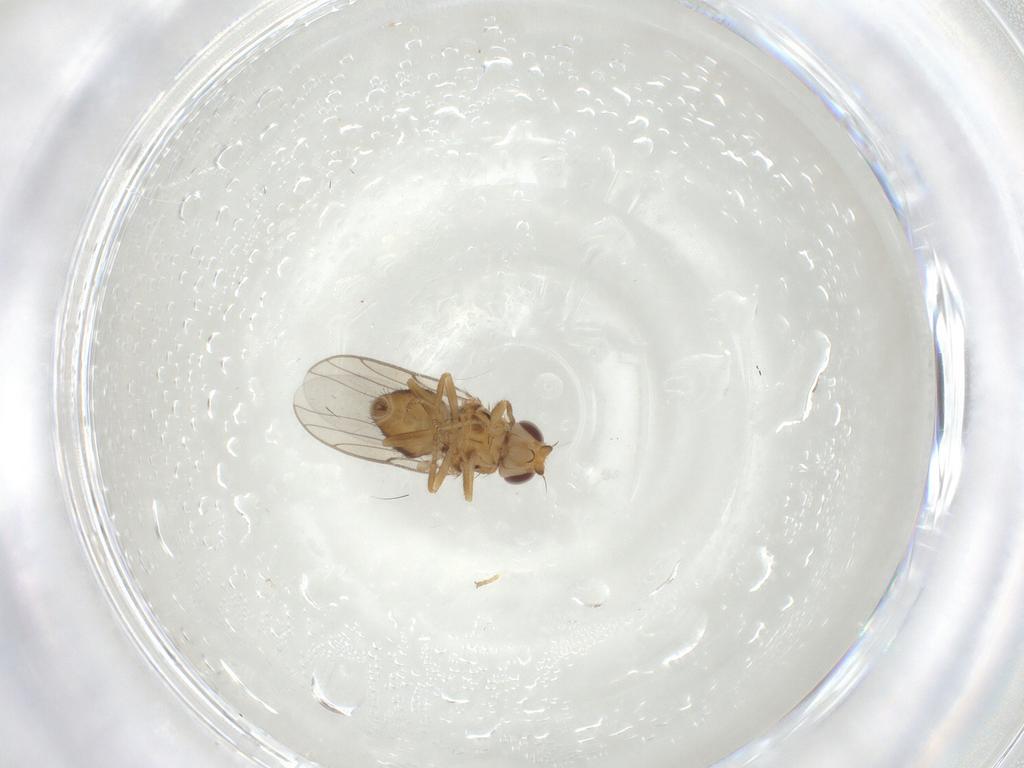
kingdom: Animalia
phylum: Arthropoda
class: Insecta
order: Diptera
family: Chloropidae
